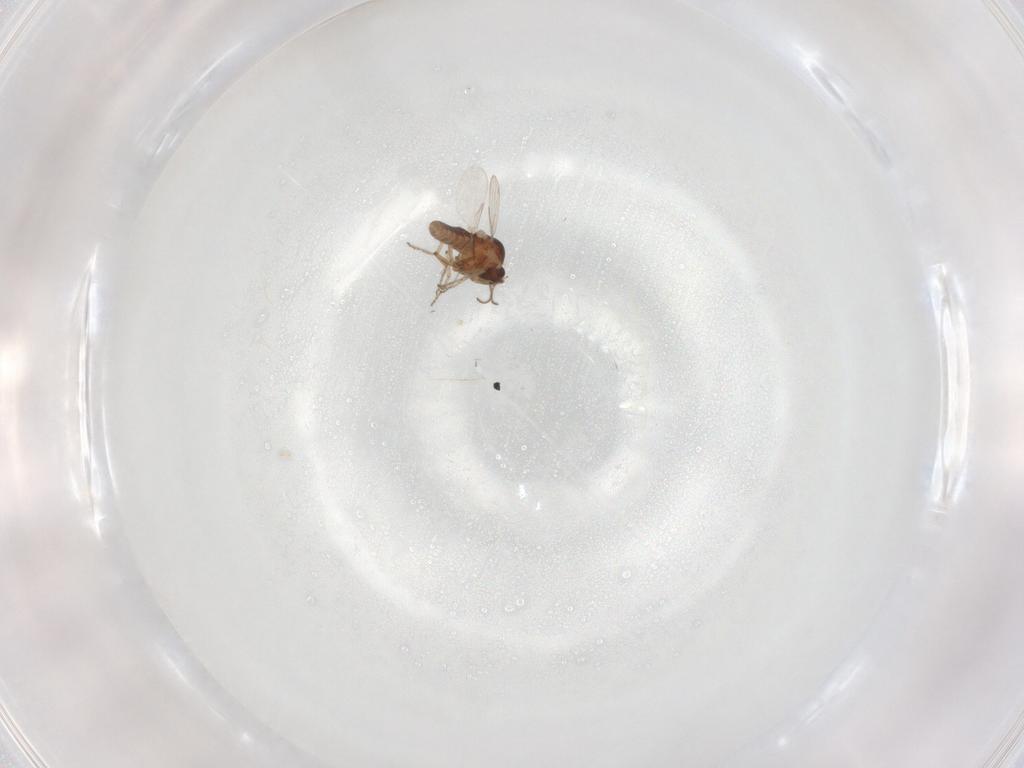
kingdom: Animalia
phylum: Arthropoda
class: Insecta
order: Diptera
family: Ceratopogonidae
